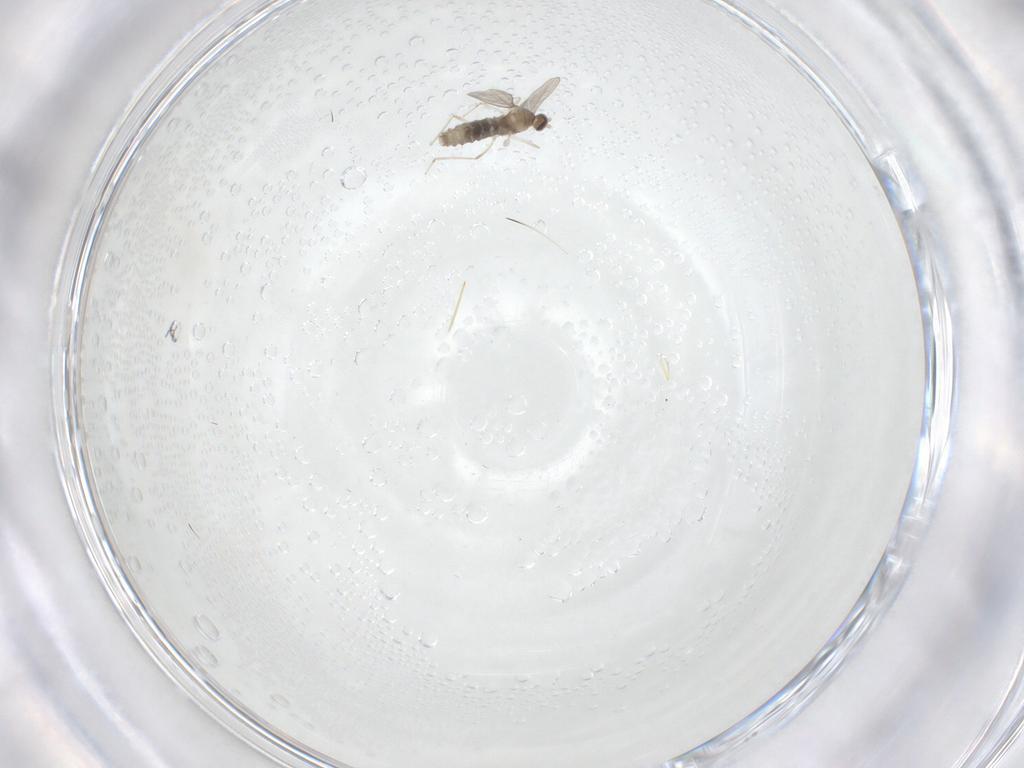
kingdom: Animalia
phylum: Arthropoda
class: Insecta
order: Diptera
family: Cecidomyiidae
